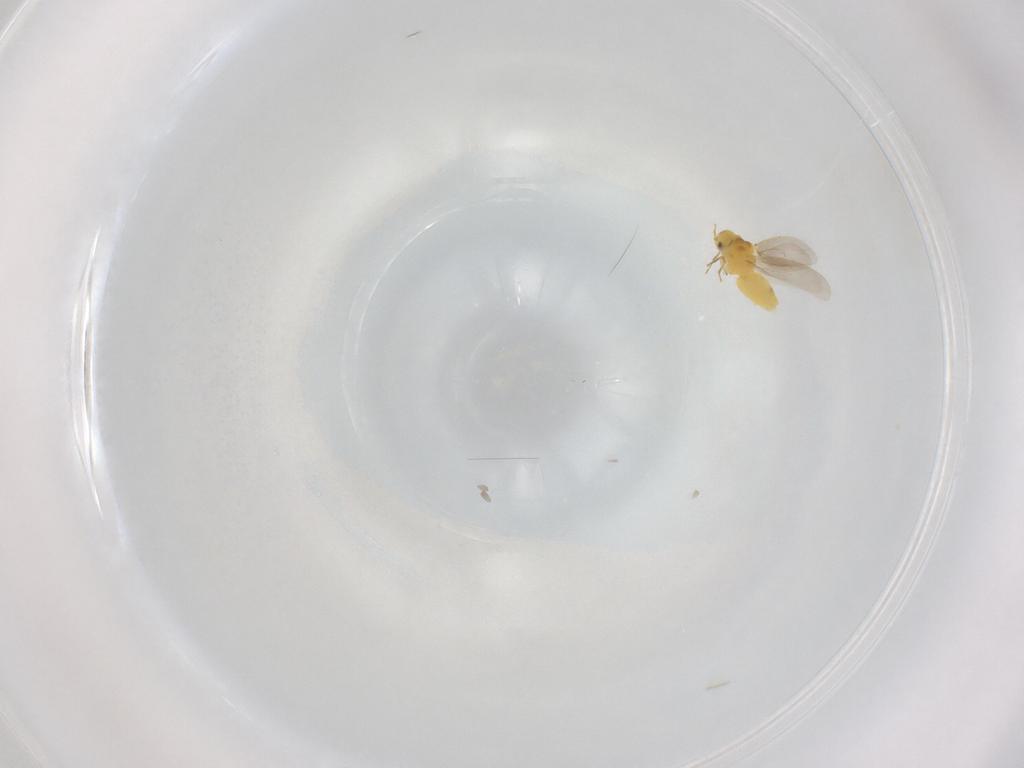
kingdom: Animalia
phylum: Arthropoda
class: Insecta
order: Hemiptera
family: Aleyrodidae
